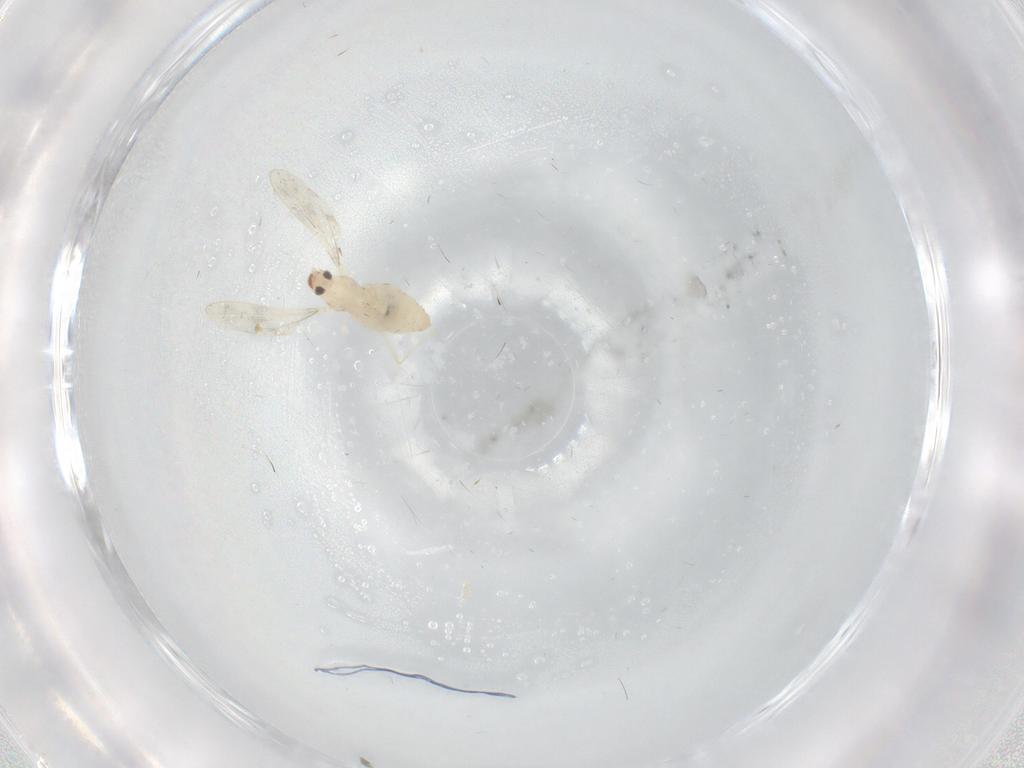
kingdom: Animalia
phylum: Arthropoda
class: Insecta
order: Diptera
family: Cecidomyiidae
